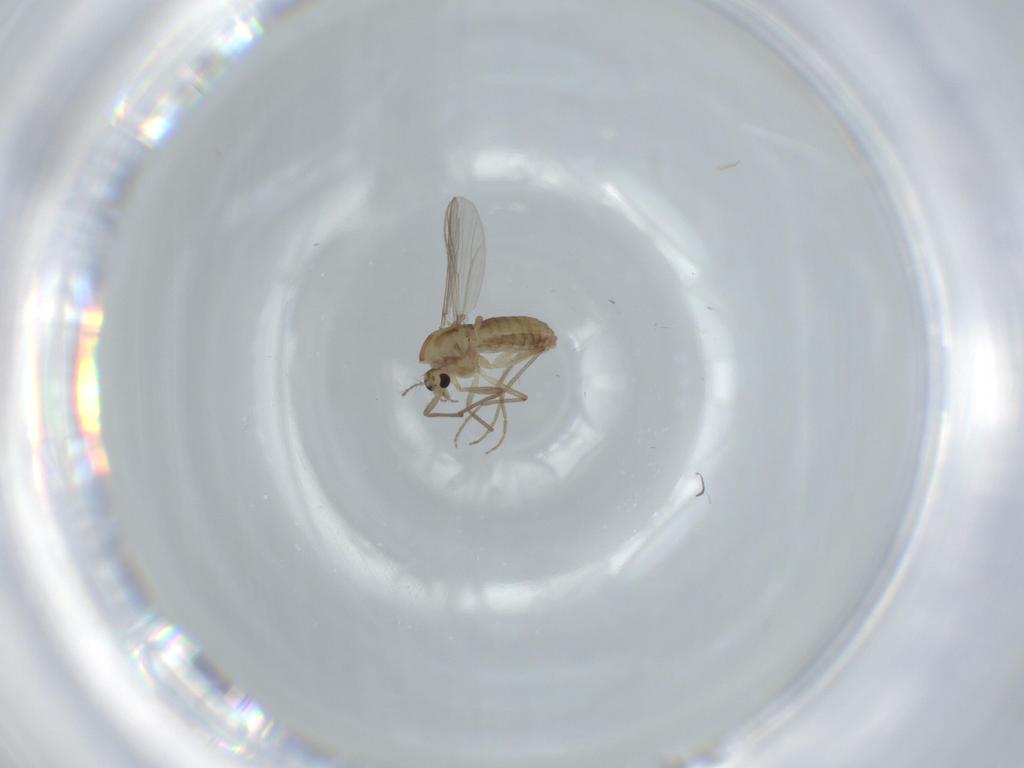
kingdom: Animalia
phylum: Arthropoda
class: Insecta
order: Diptera
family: Chironomidae
